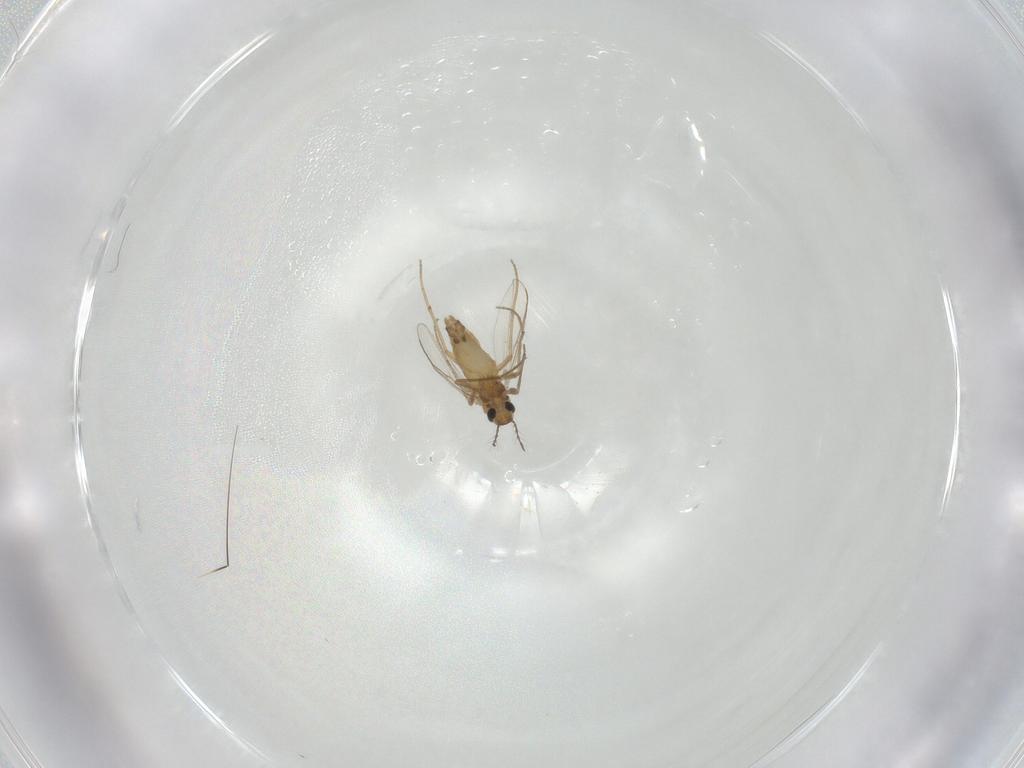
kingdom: Animalia
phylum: Arthropoda
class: Insecta
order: Diptera
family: Chironomidae
